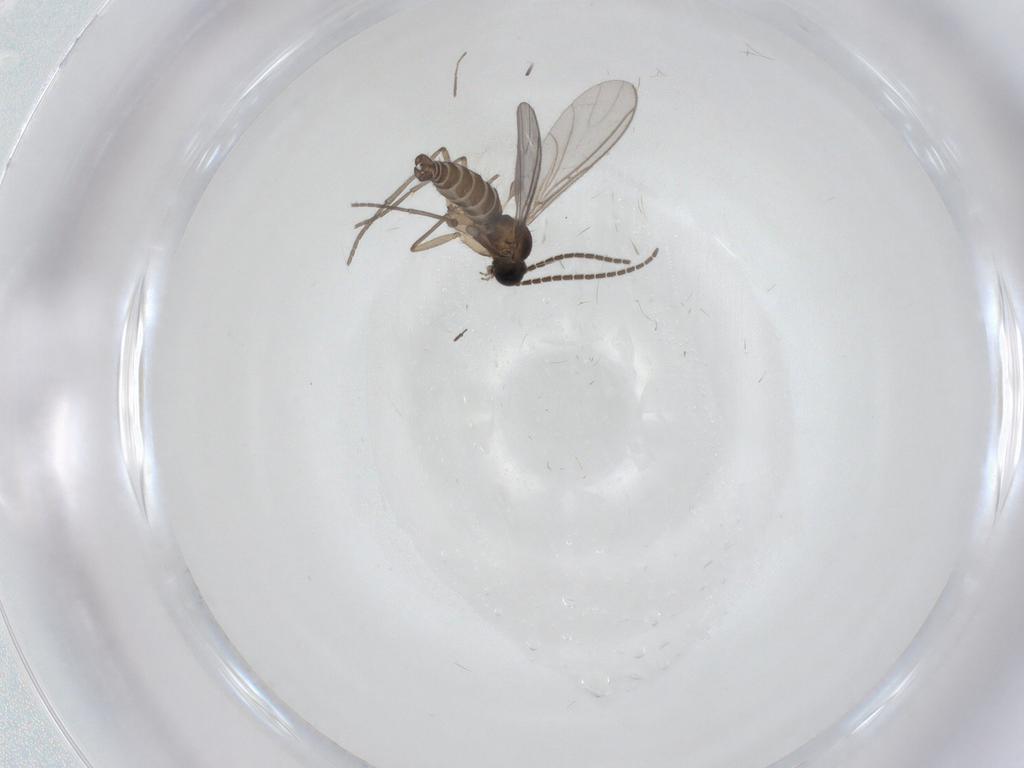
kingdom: Animalia
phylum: Arthropoda
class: Insecta
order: Diptera
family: Sciaridae
